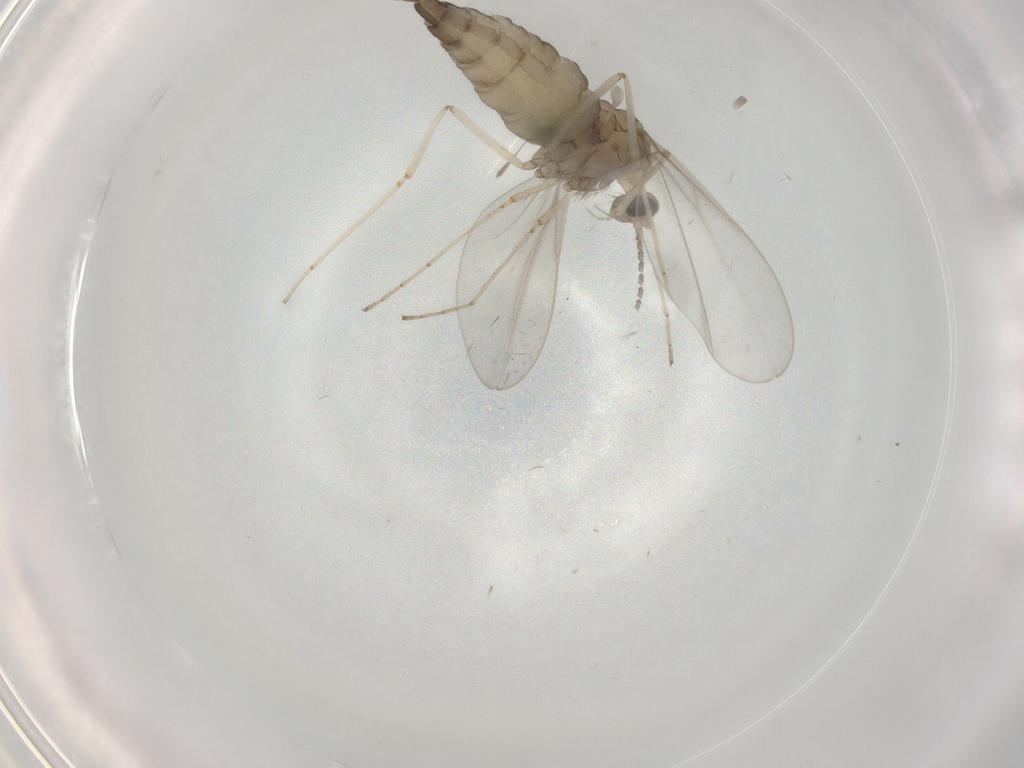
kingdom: Animalia
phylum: Arthropoda
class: Insecta
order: Diptera
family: Cecidomyiidae
